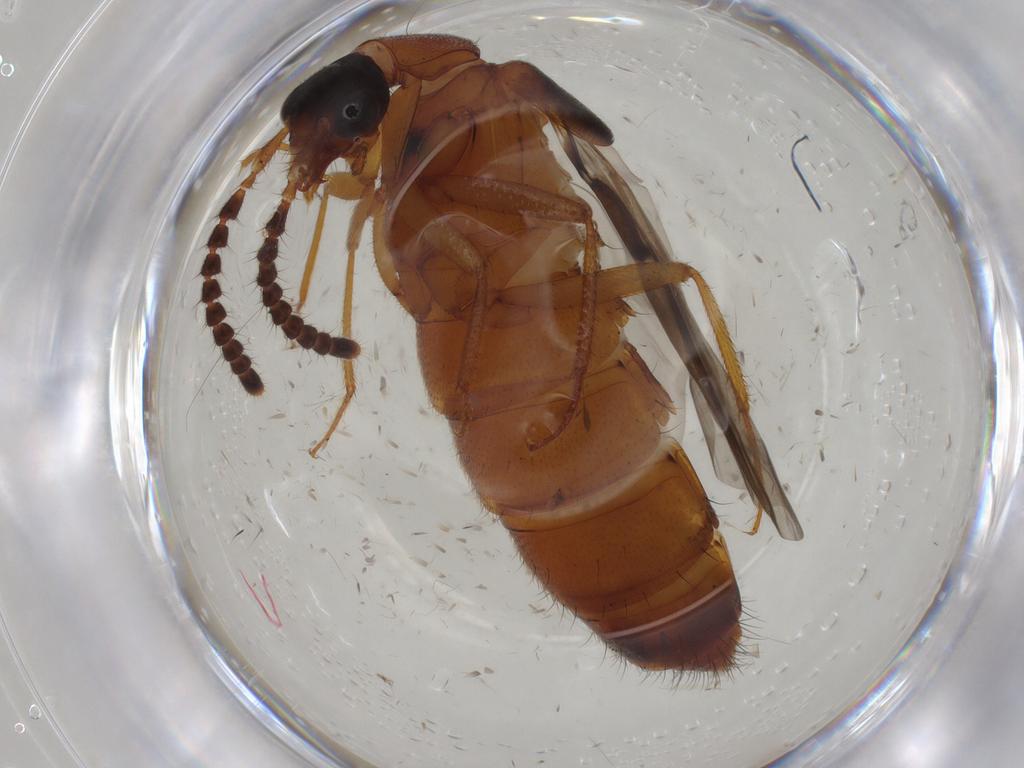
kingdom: Animalia
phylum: Arthropoda
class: Insecta
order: Coleoptera
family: Staphylinidae
